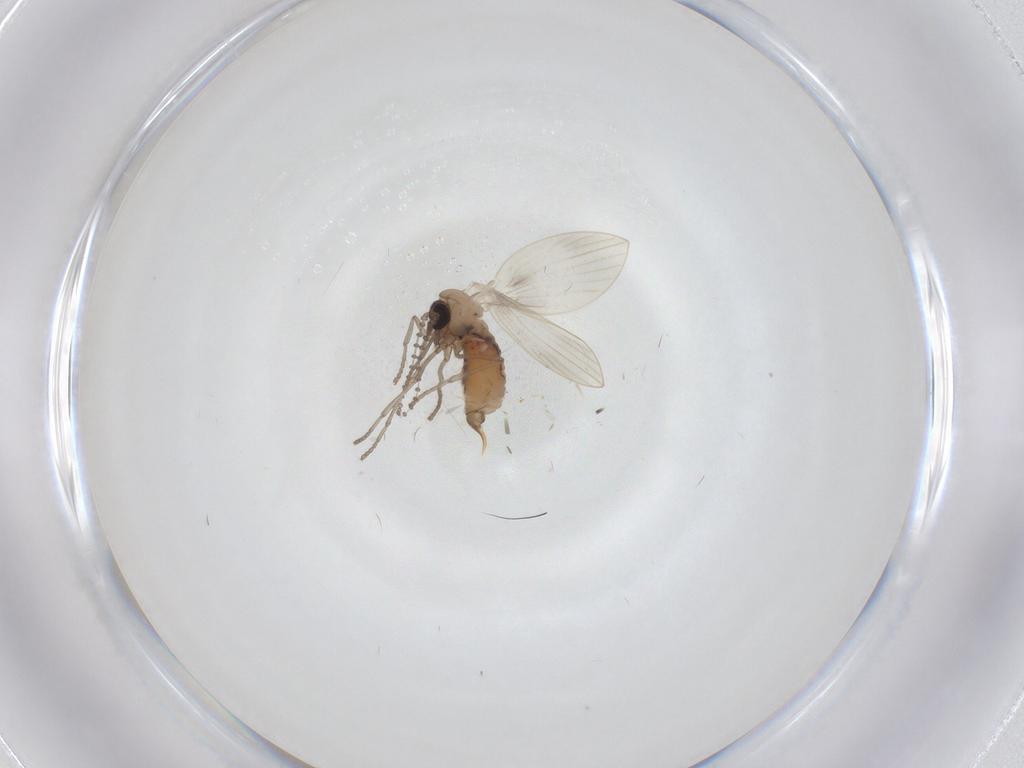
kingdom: Animalia
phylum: Arthropoda
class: Insecta
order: Diptera
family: Psychodidae
